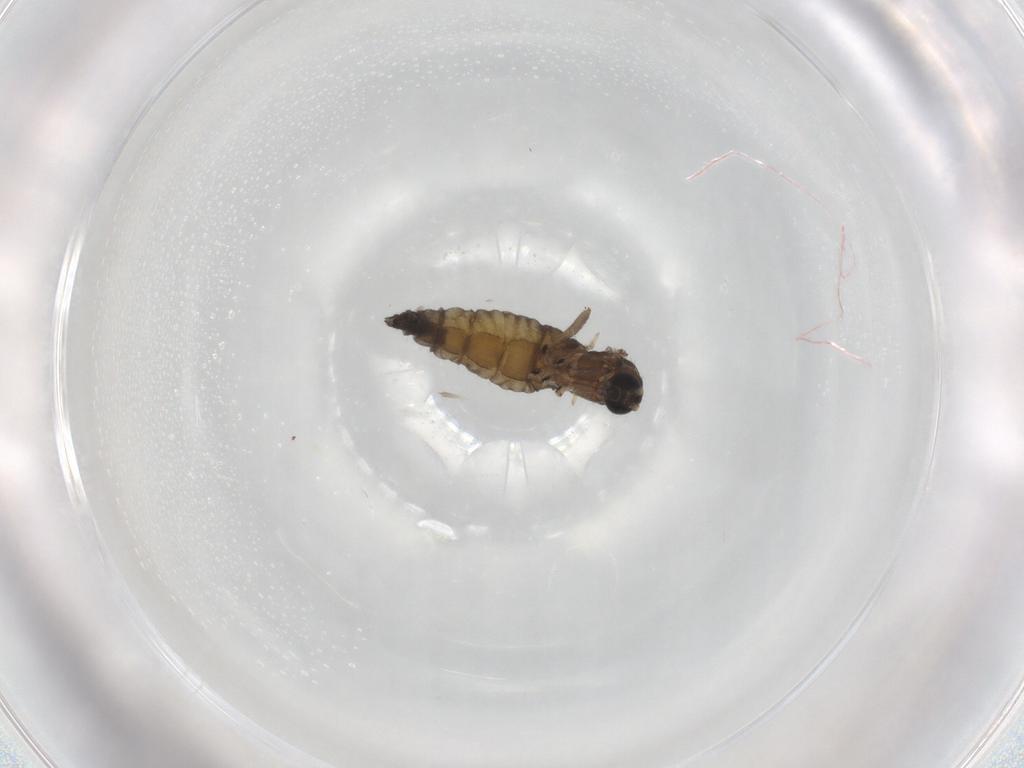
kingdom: Animalia
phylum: Arthropoda
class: Insecta
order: Diptera
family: Sciaridae
